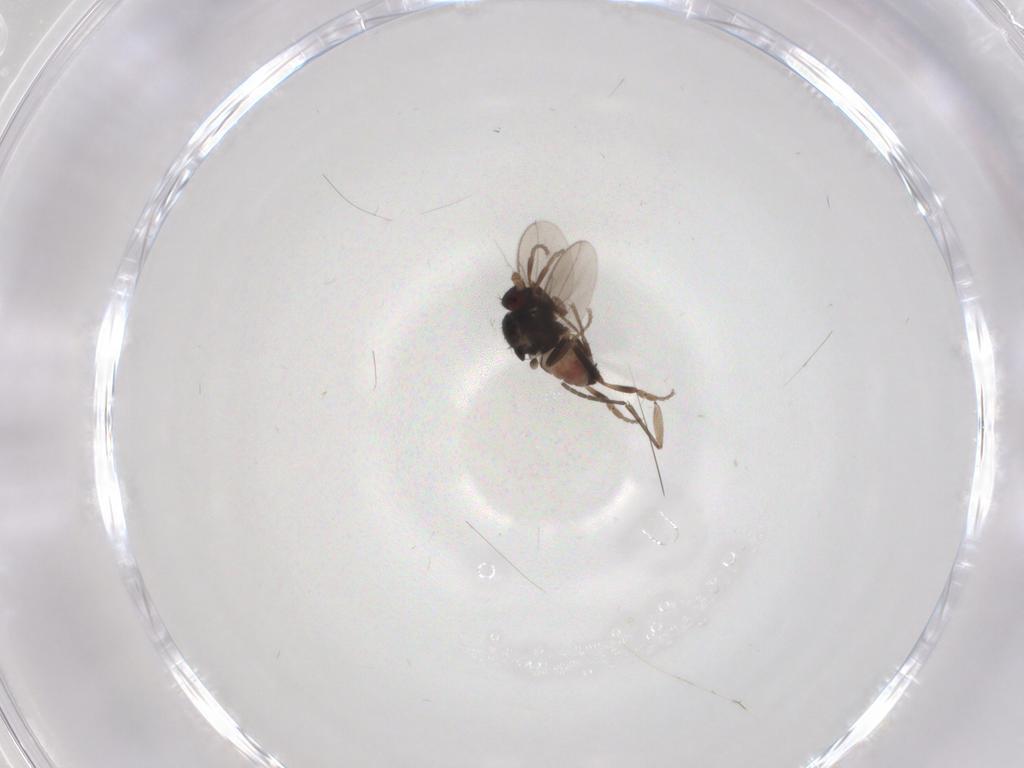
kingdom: Animalia
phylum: Arthropoda
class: Insecta
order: Diptera
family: Sphaeroceridae
